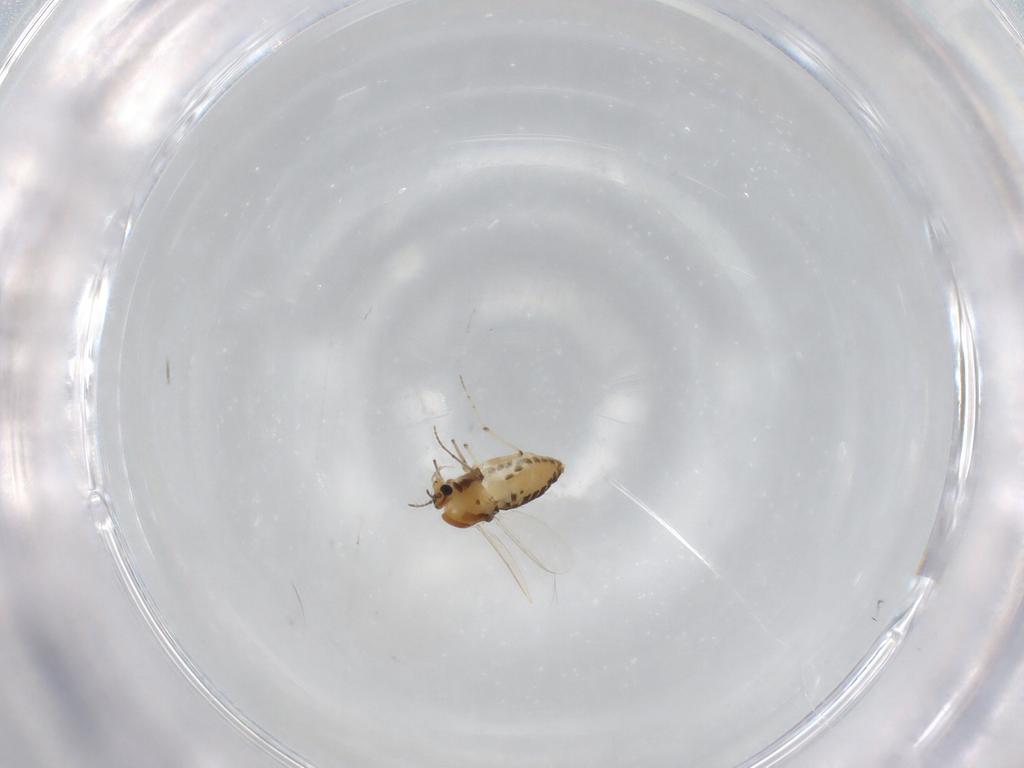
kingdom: Animalia
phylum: Arthropoda
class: Insecta
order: Diptera
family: Chironomidae
